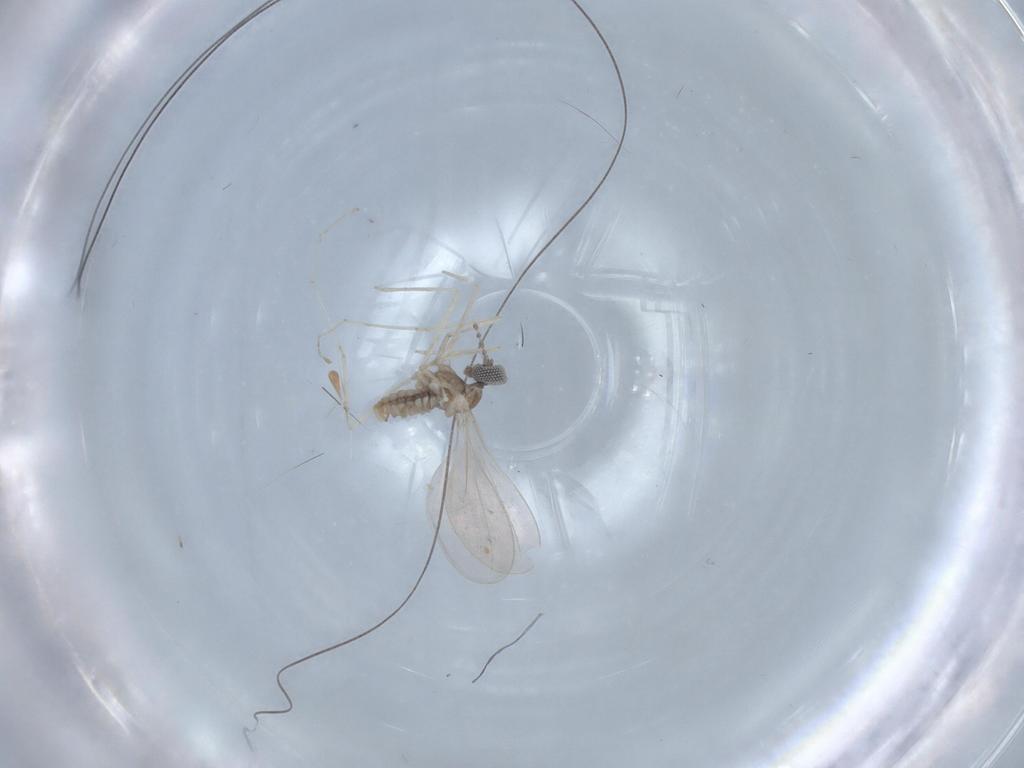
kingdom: Animalia
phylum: Arthropoda
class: Insecta
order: Diptera
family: Cecidomyiidae
